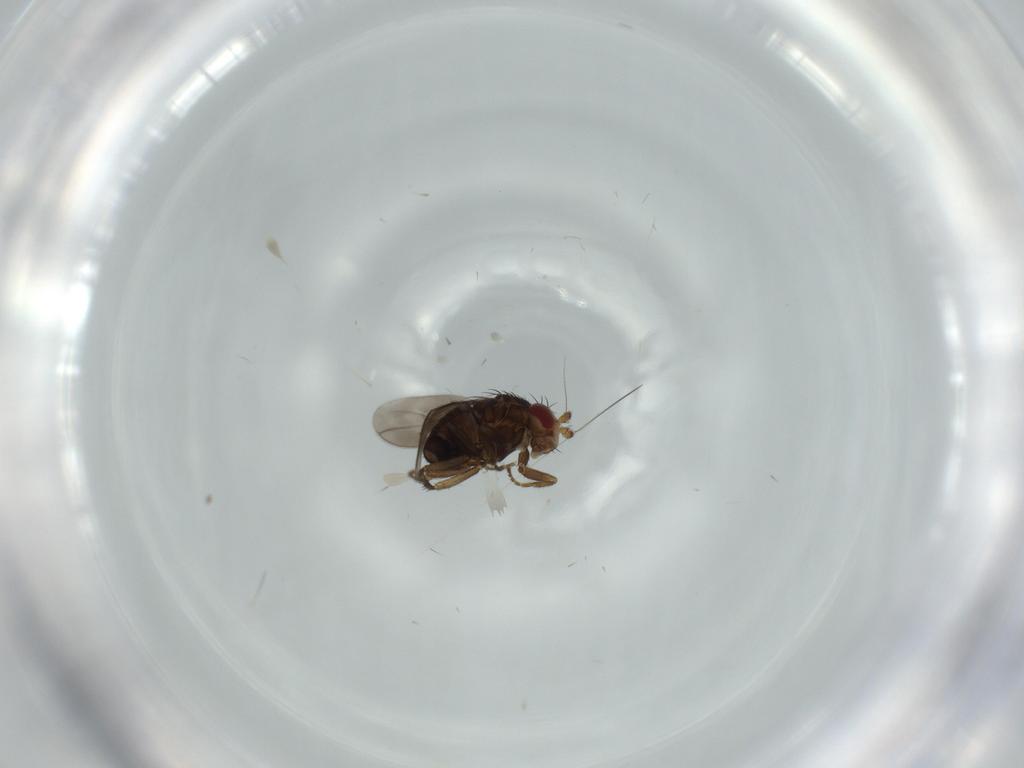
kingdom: Animalia
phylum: Arthropoda
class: Insecta
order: Diptera
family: Sphaeroceridae
